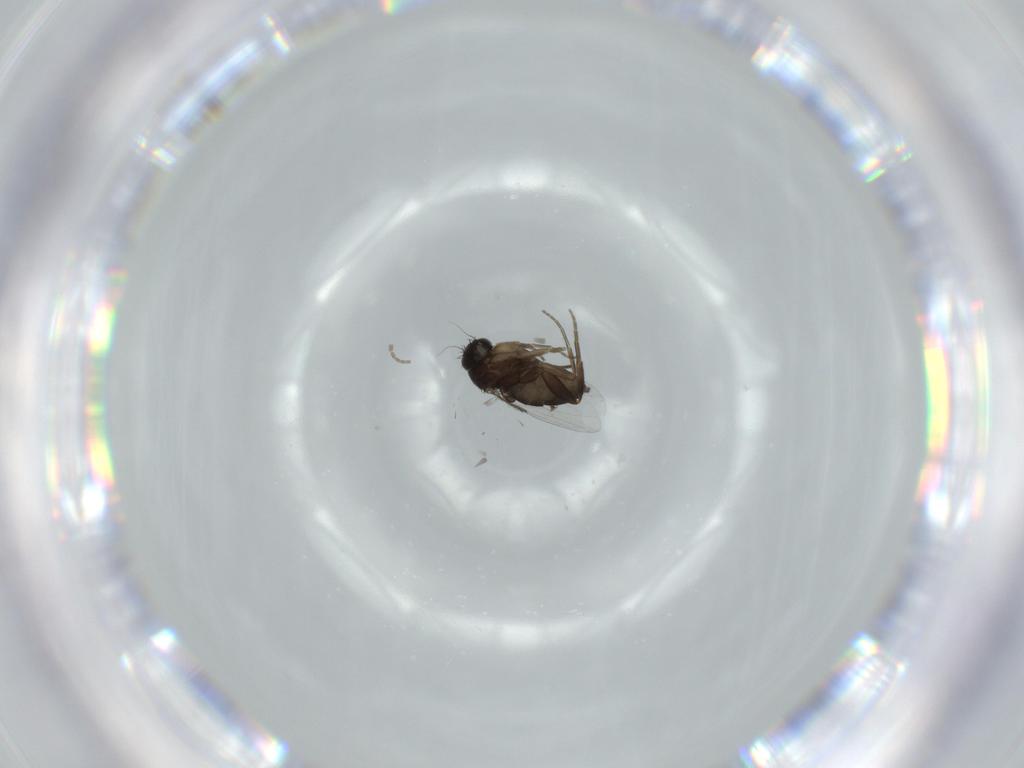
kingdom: Animalia
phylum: Arthropoda
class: Insecta
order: Diptera
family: Phoridae
